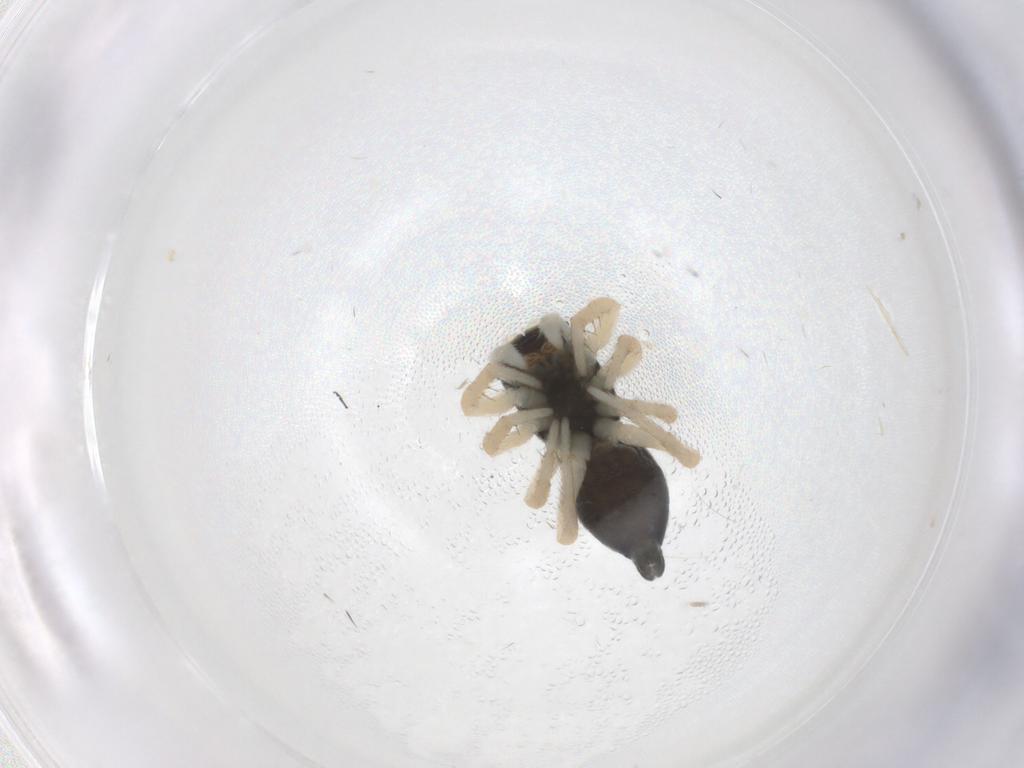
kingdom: Animalia
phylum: Arthropoda
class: Arachnida
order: Araneae
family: Salticidae
